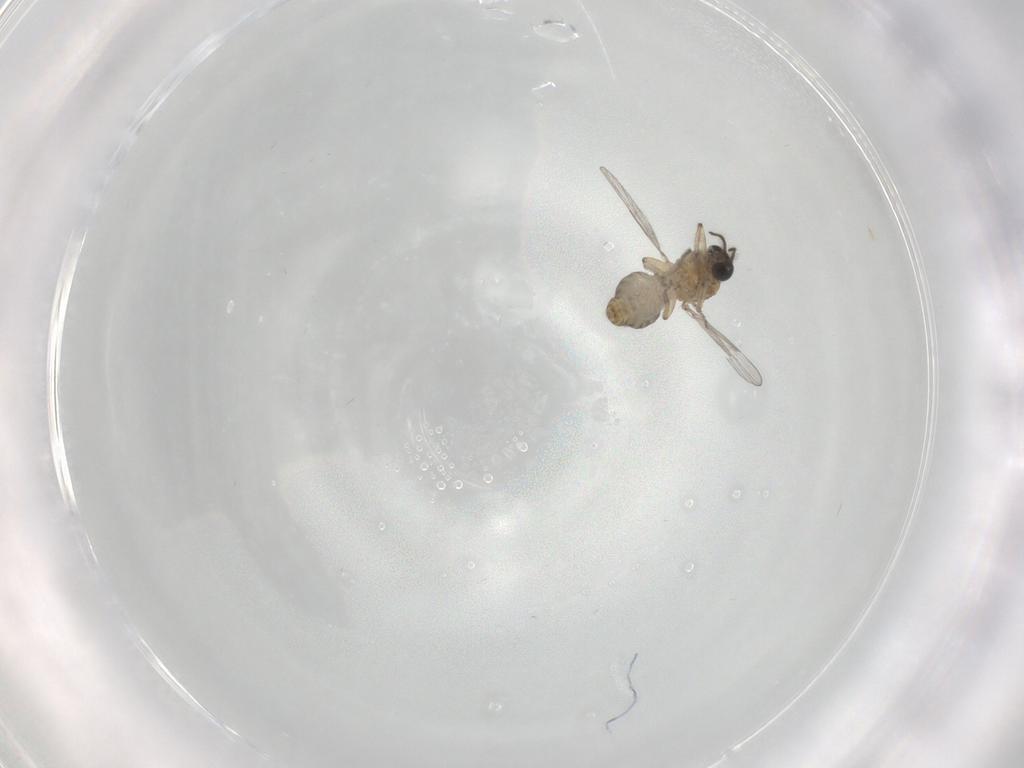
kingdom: Animalia
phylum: Arthropoda
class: Insecta
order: Diptera
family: Ceratopogonidae
